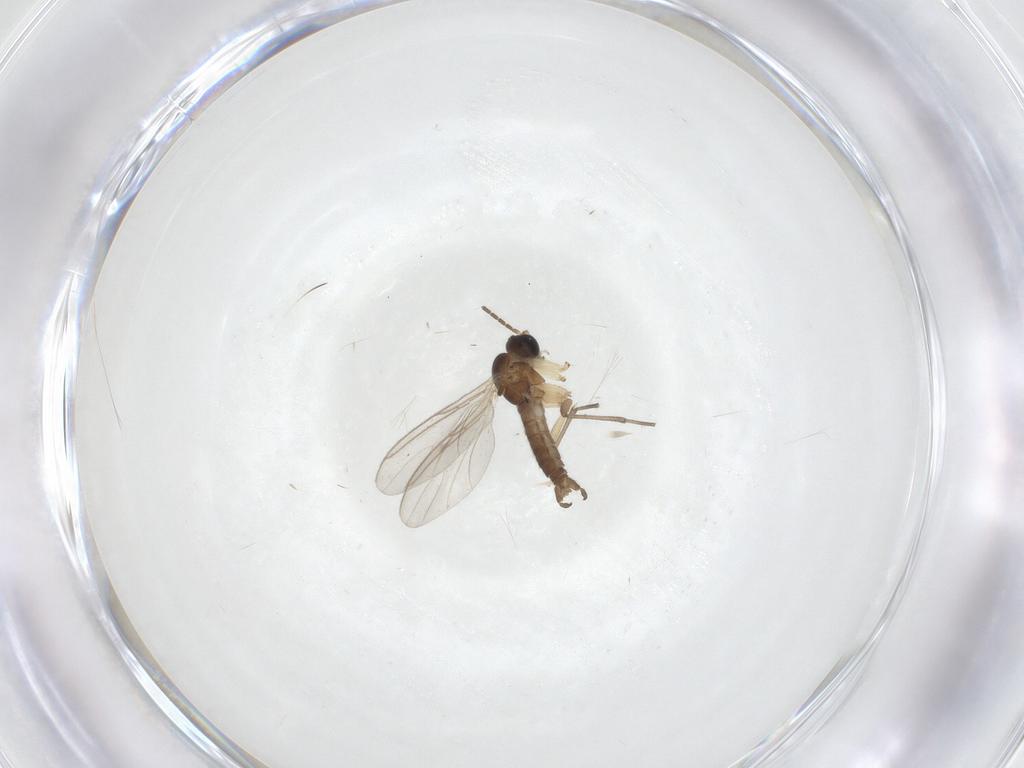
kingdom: Animalia
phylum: Arthropoda
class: Insecta
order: Diptera
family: Sciaridae
